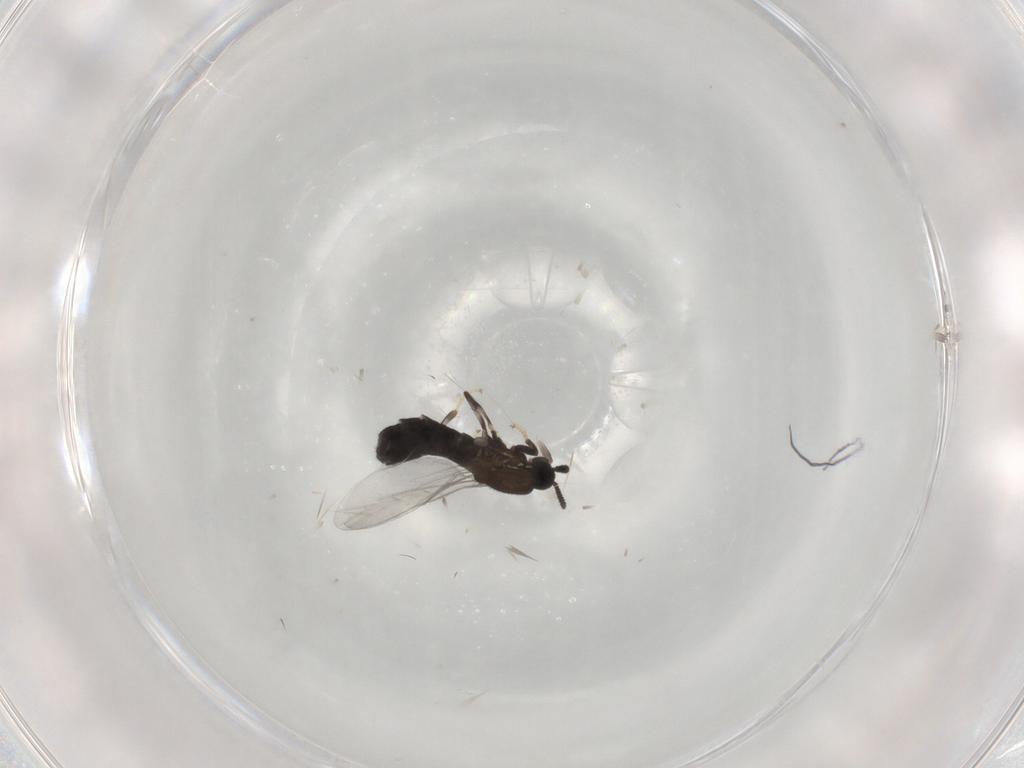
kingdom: Animalia
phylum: Arthropoda
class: Insecta
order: Diptera
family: Scatopsidae
